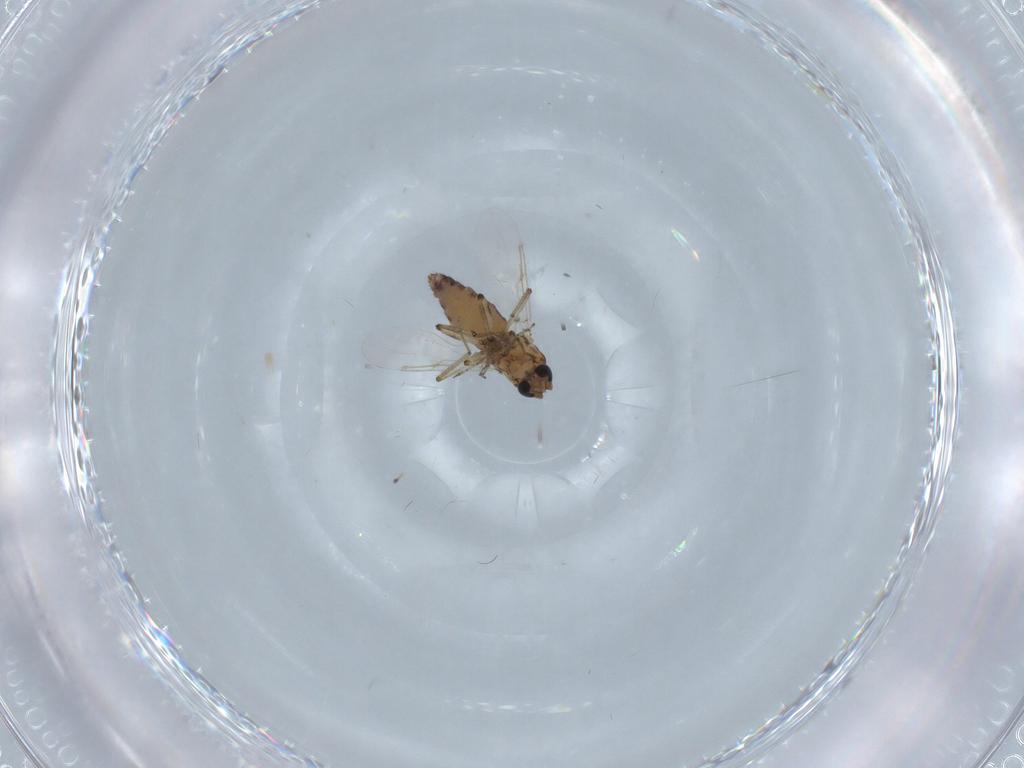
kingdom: Animalia
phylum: Arthropoda
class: Insecta
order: Diptera
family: Ceratopogonidae
